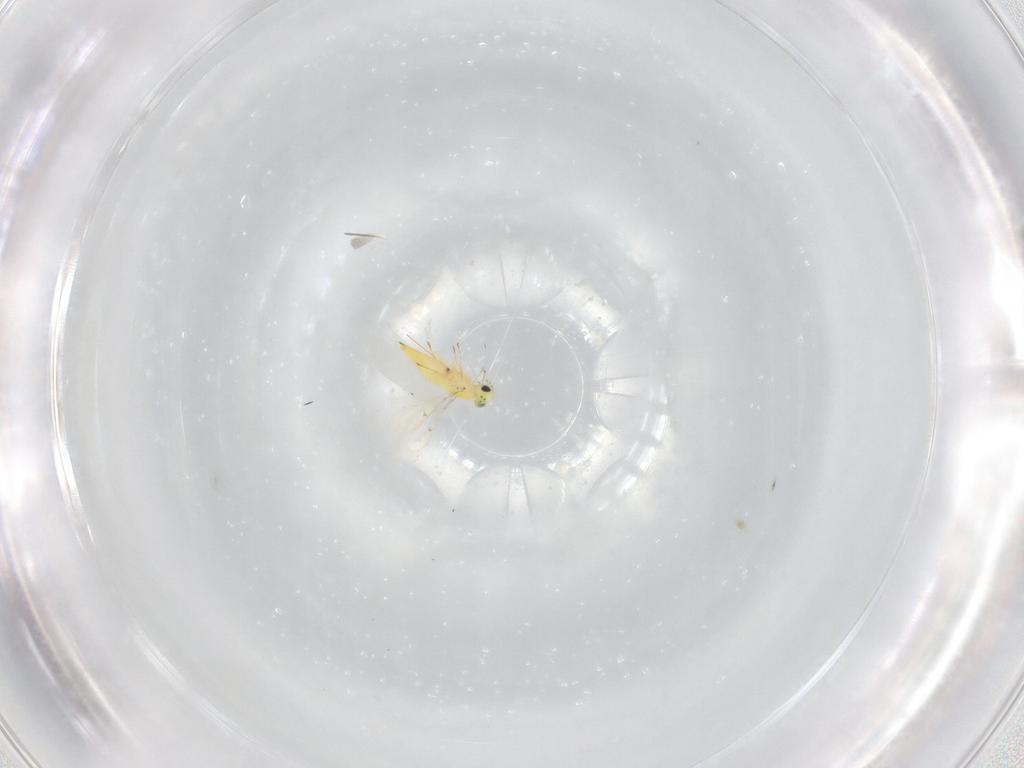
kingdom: Animalia
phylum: Arthropoda
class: Insecta
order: Hymenoptera
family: Trichogrammatidae
